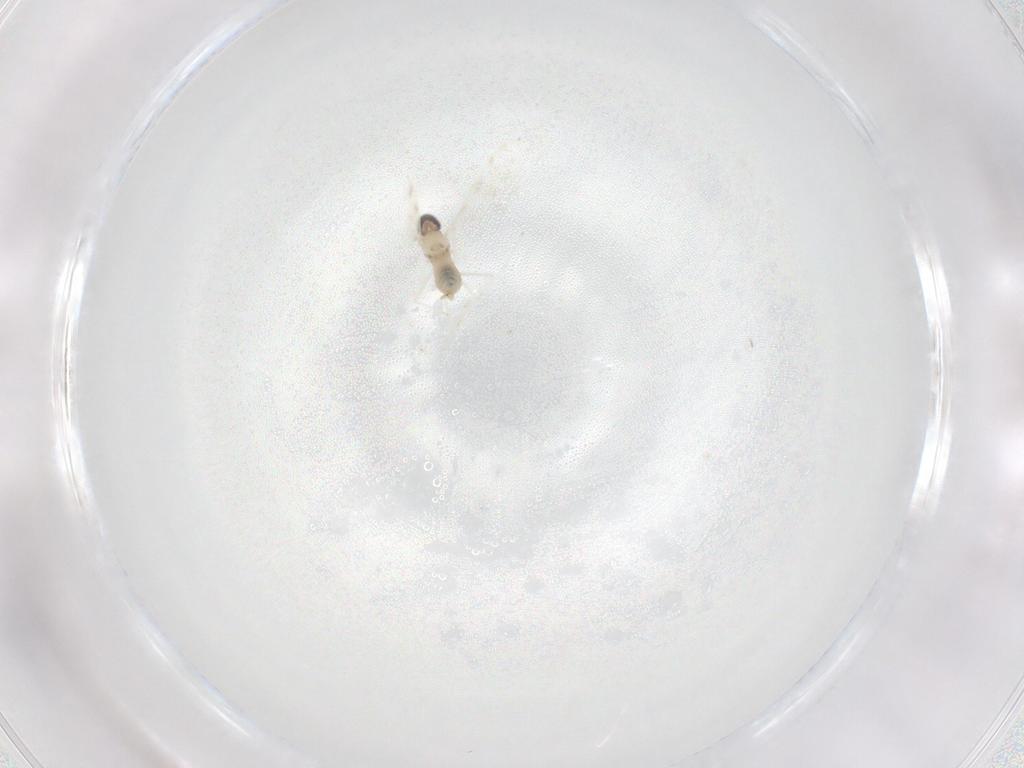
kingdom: Animalia
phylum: Arthropoda
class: Insecta
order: Diptera
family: Cecidomyiidae
